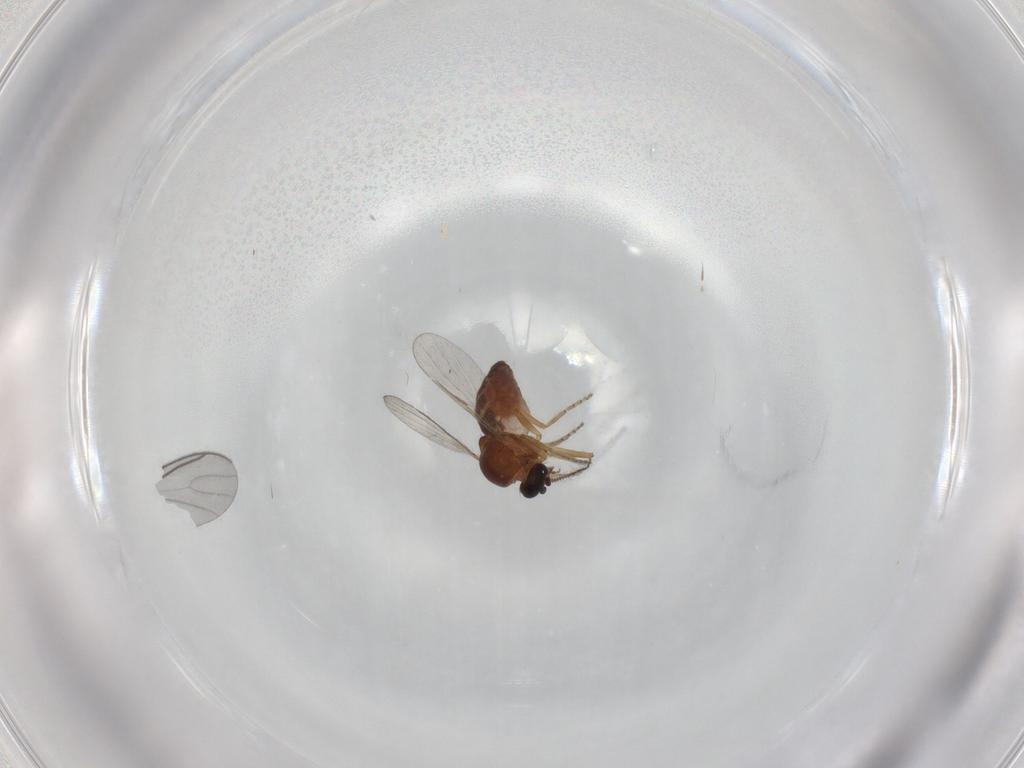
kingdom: Animalia
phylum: Arthropoda
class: Insecta
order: Diptera
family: Ceratopogonidae
